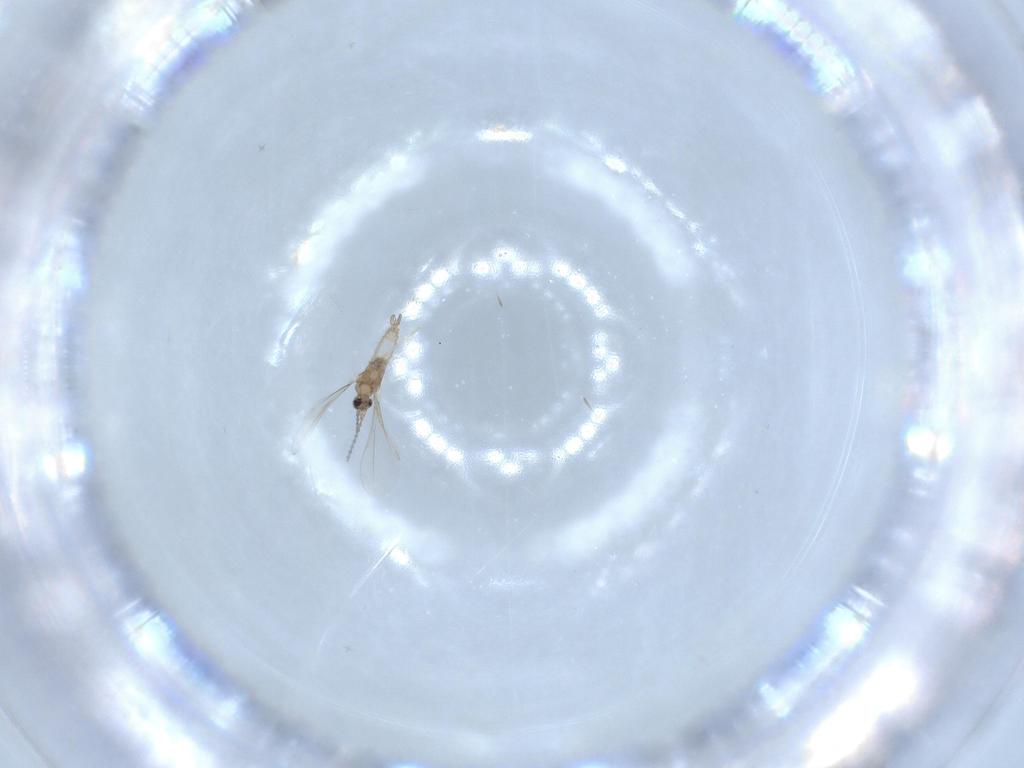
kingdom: Animalia
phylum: Arthropoda
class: Insecta
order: Diptera
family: Cecidomyiidae
